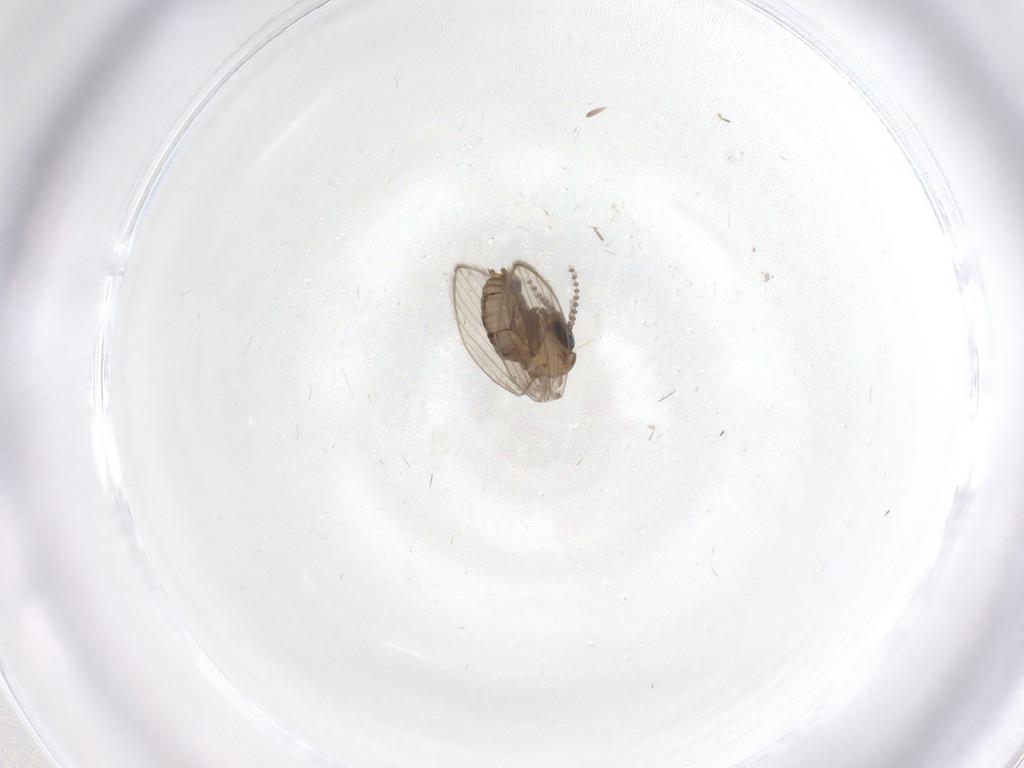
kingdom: Animalia
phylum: Arthropoda
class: Insecta
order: Diptera
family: Psychodidae
